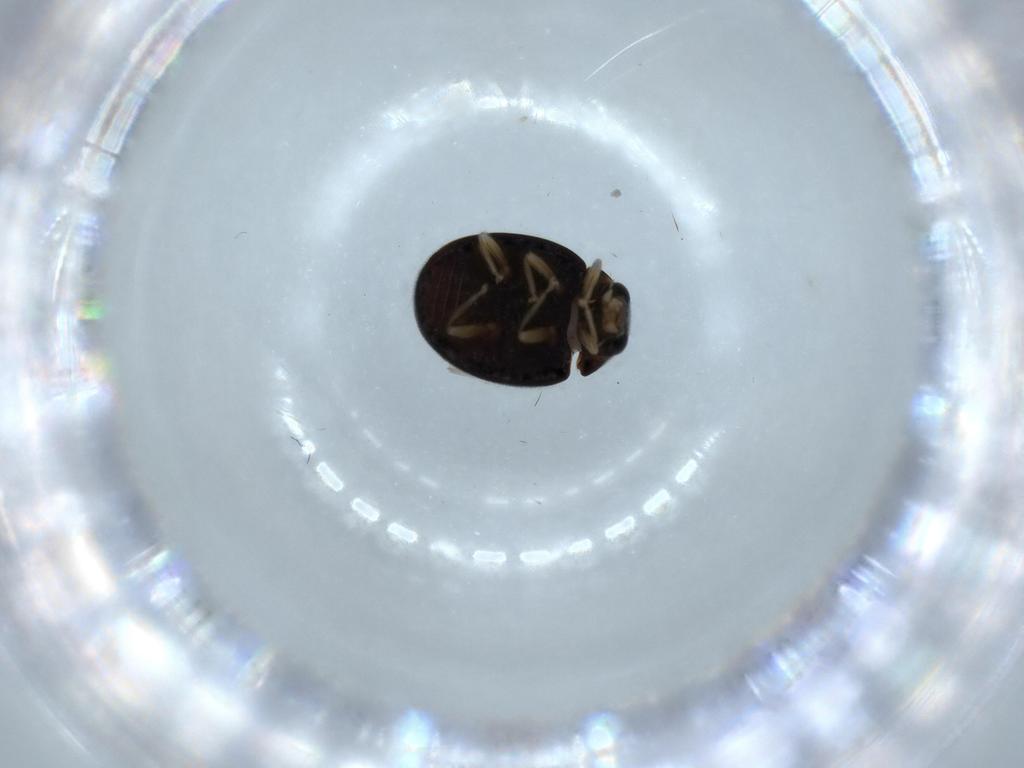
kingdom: Animalia
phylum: Arthropoda
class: Insecta
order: Coleoptera
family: Coccinellidae
